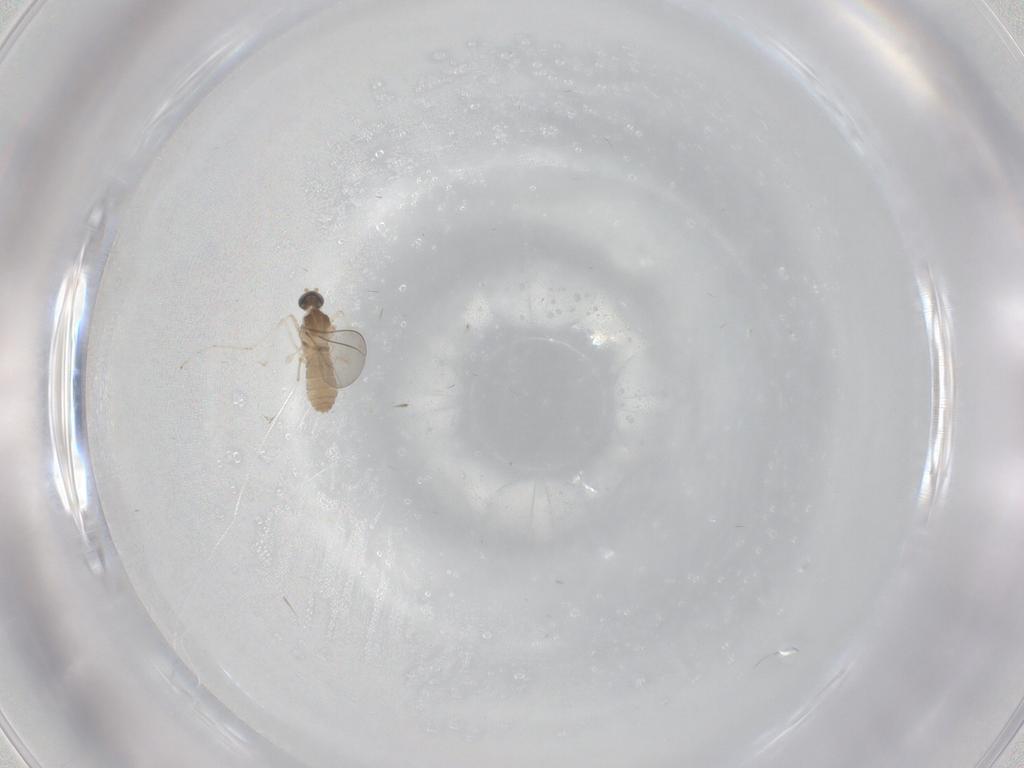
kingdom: Animalia
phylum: Arthropoda
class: Insecta
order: Diptera
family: Cecidomyiidae
